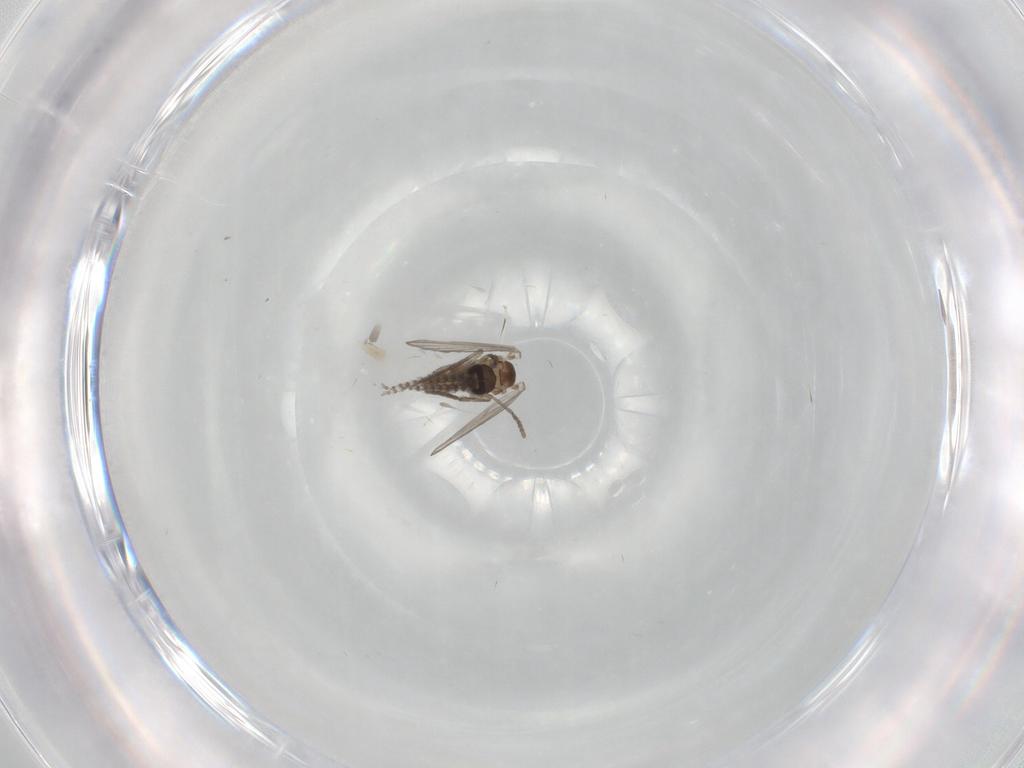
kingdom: Animalia
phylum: Arthropoda
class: Insecta
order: Diptera
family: Psychodidae
